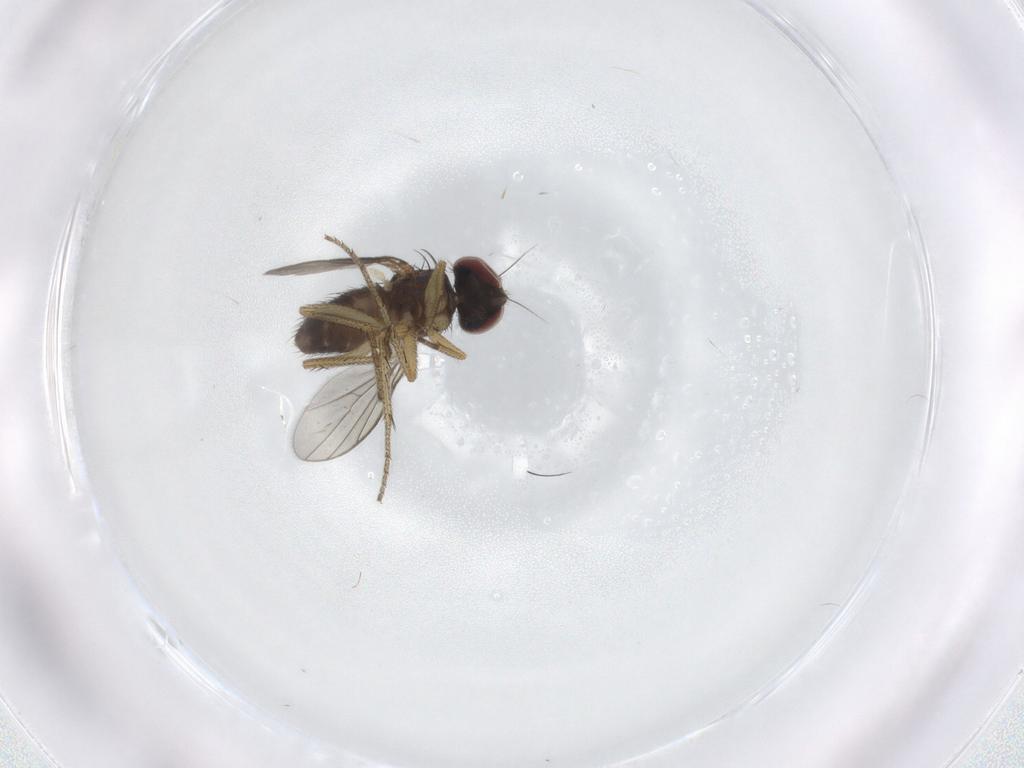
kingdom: Animalia
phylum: Arthropoda
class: Insecta
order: Diptera
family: Dolichopodidae
